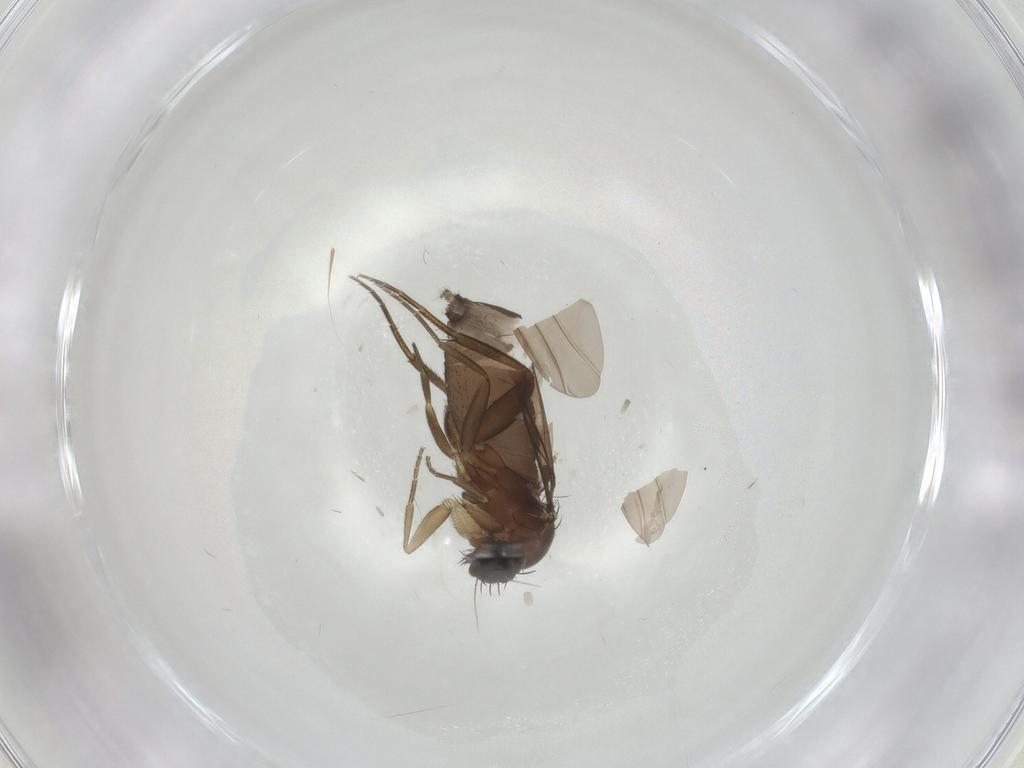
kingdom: Animalia
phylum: Arthropoda
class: Insecta
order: Diptera
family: Phoridae
